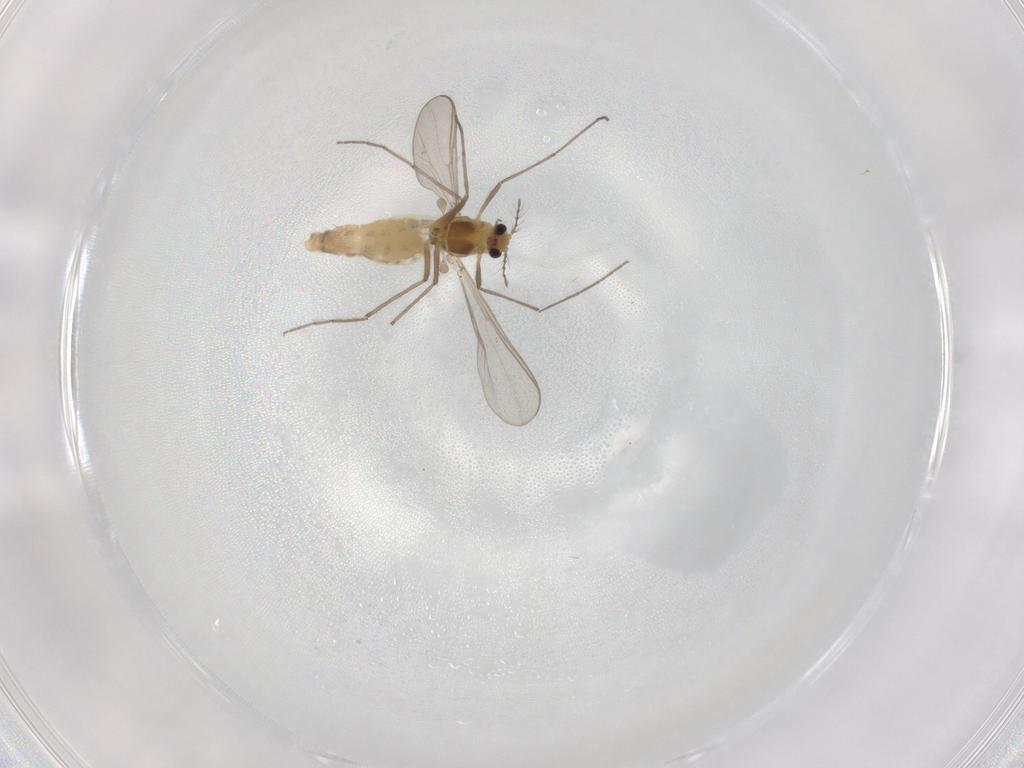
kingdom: Animalia
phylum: Arthropoda
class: Insecta
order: Diptera
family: Chironomidae
